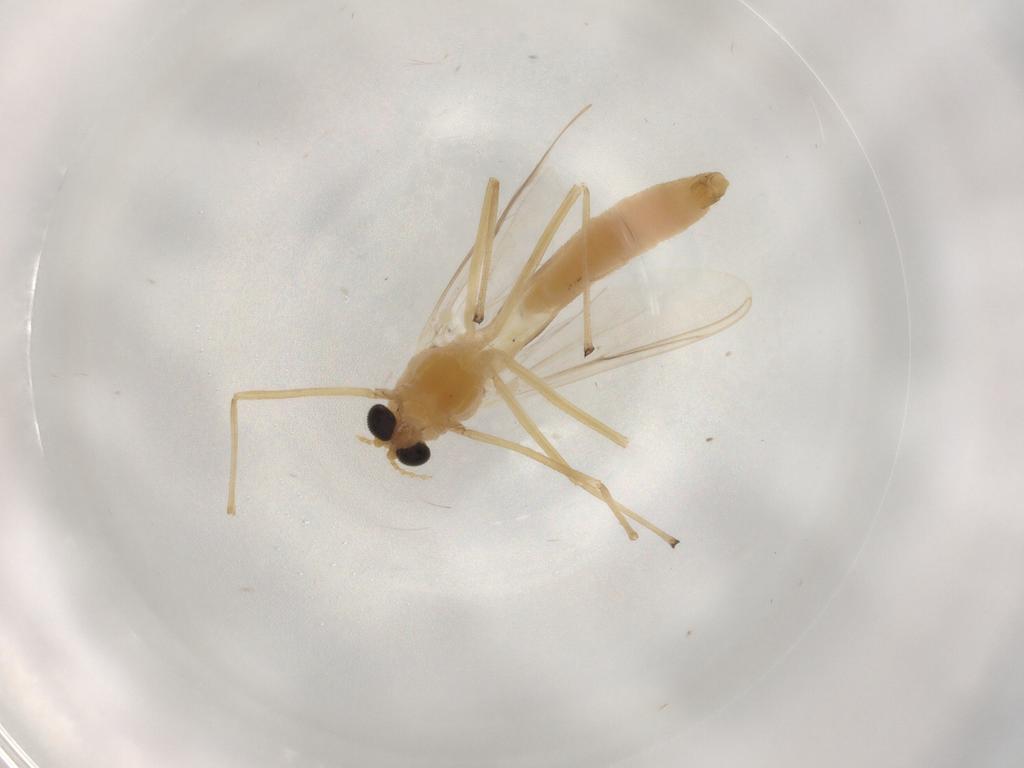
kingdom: Animalia
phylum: Arthropoda
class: Insecta
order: Diptera
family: Chironomidae
